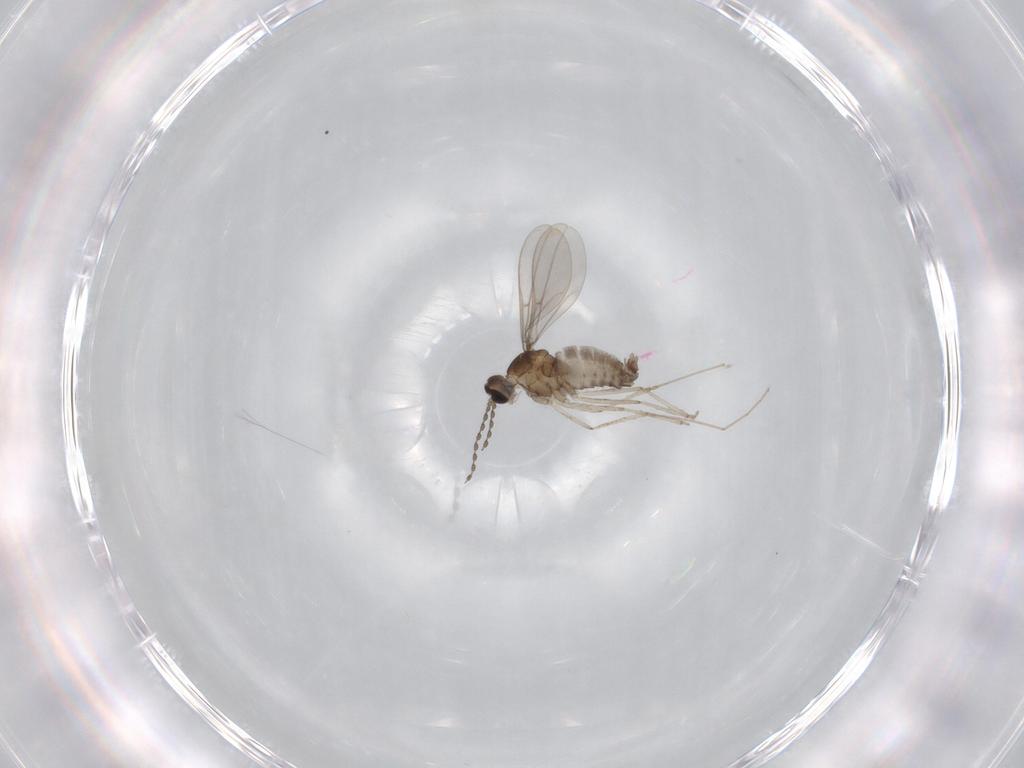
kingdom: Animalia
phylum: Arthropoda
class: Insecta
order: Diptera
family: Cecidomyiidae
